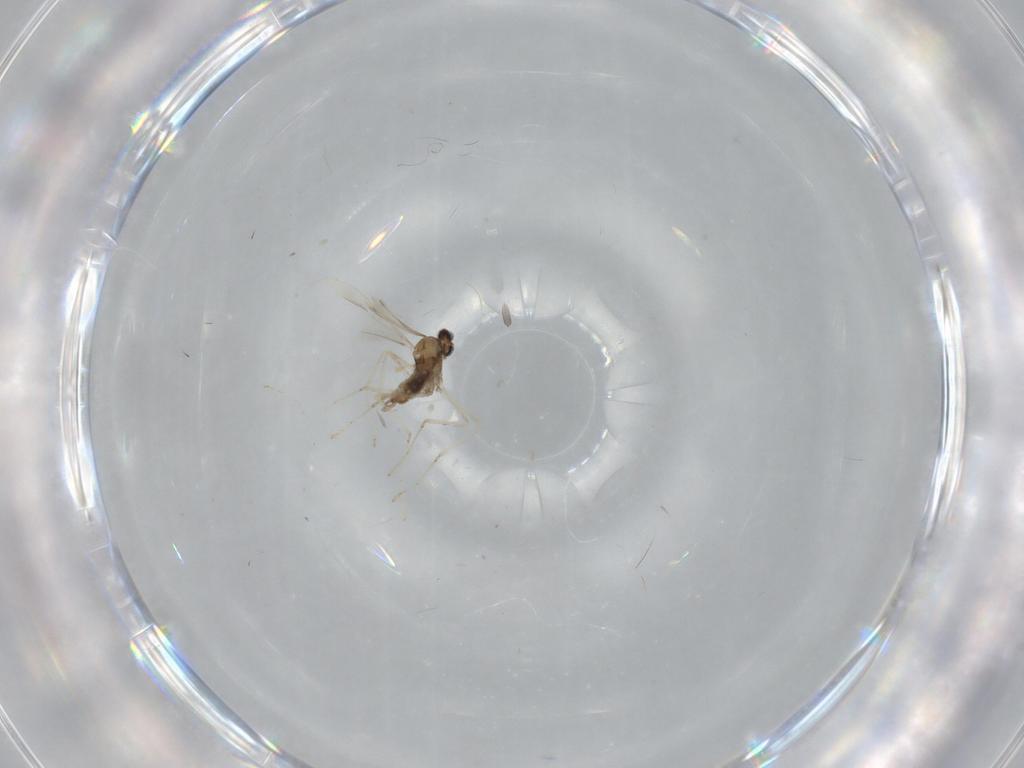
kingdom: Animalia
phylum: Arthropoda
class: Insecta
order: Diptera
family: Cecidomyiidae
